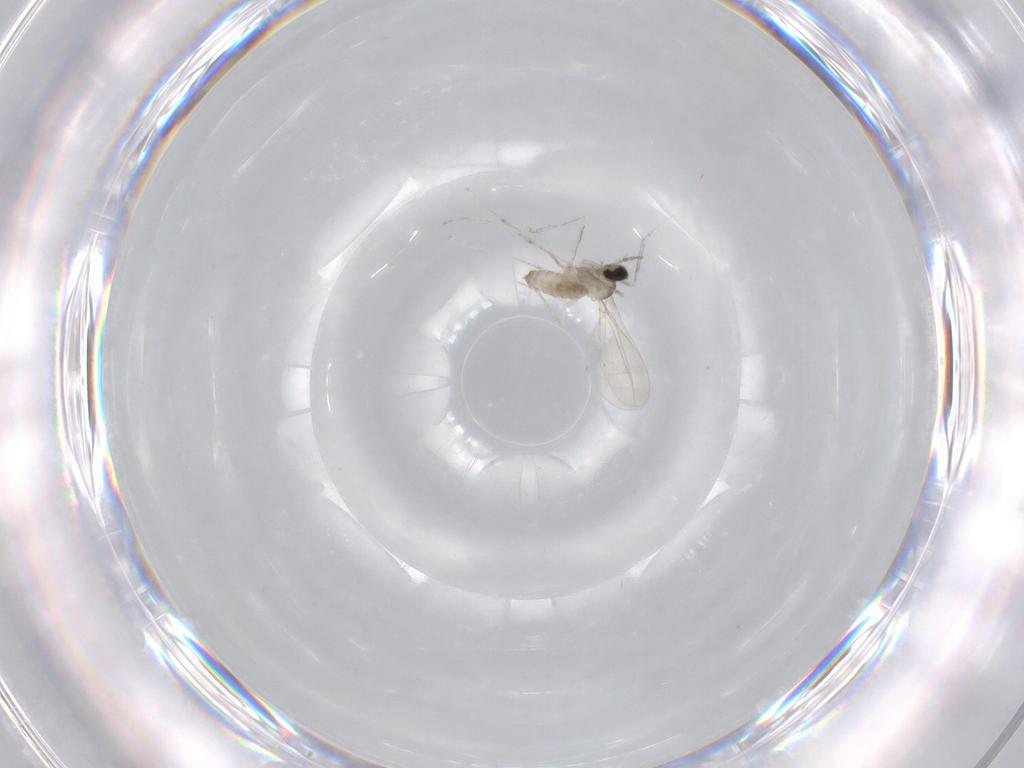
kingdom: Animalia
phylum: Arthropoda
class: Insecta
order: Diptera
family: Cecidomyiidae
